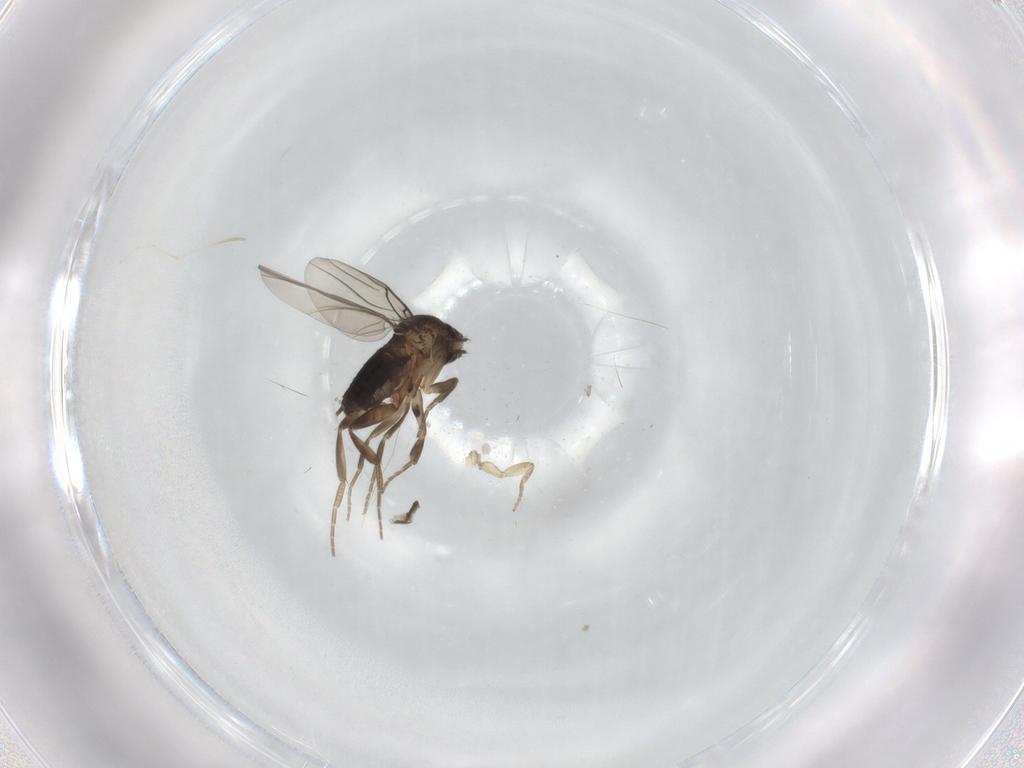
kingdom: Animalia
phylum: Arthropoda
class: Insecta
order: Diptera
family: Phoridae
